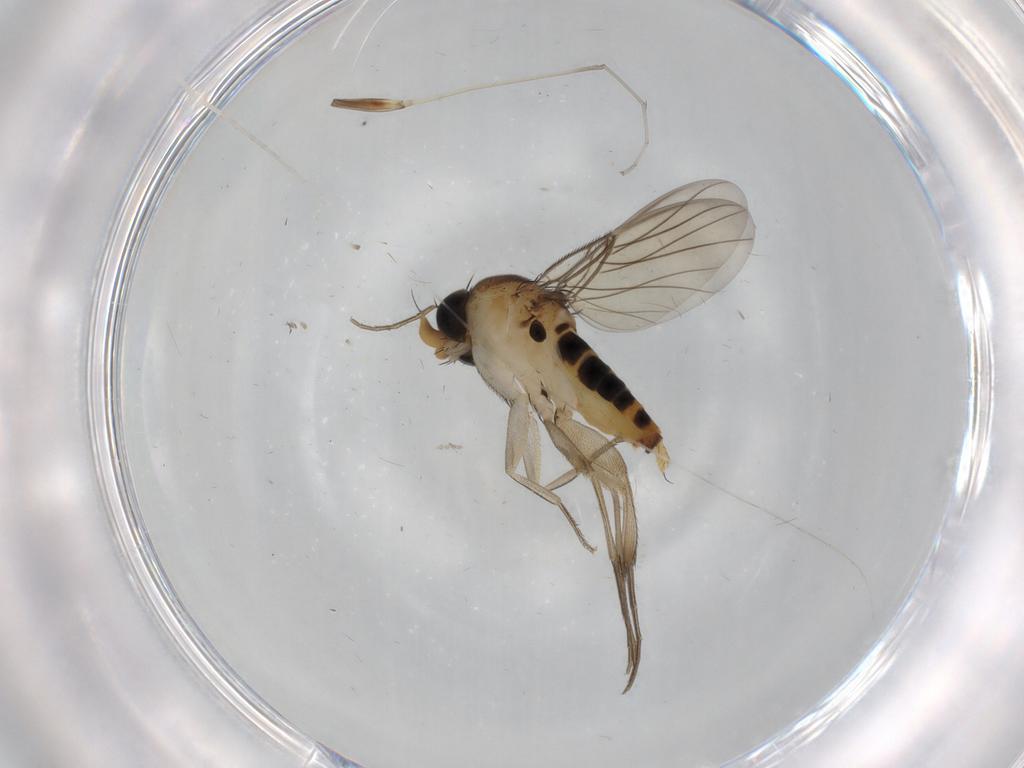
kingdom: Animalia
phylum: Arthropoda
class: Insecta
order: Diptera
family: Phoridae
